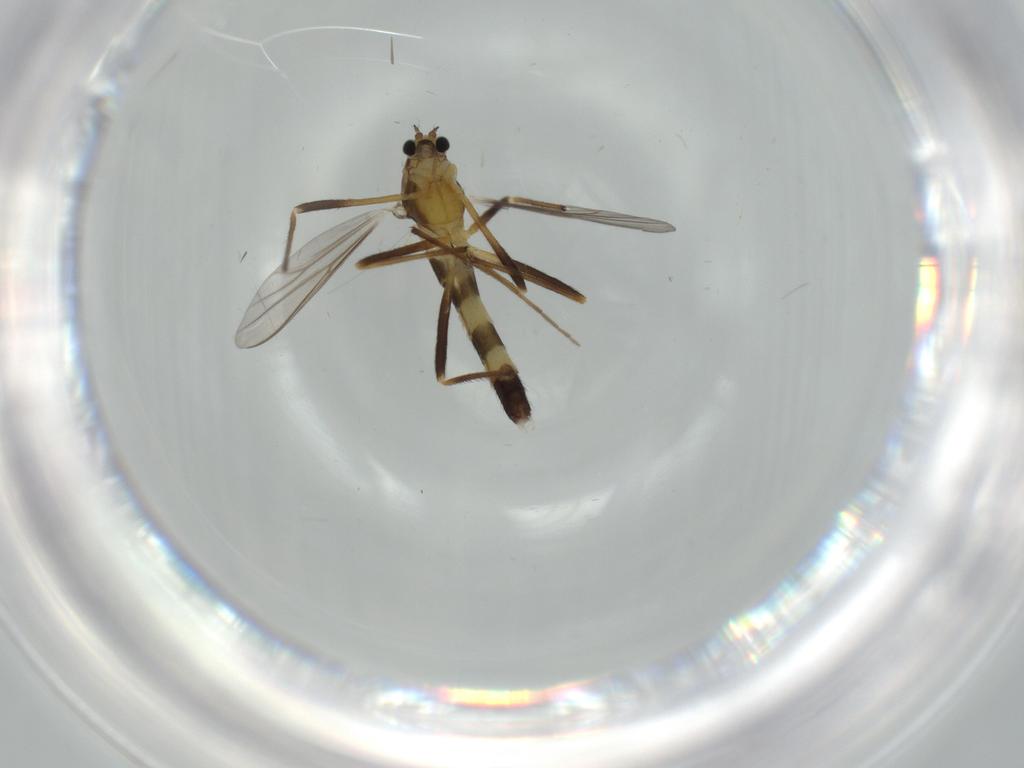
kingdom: Animalia
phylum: Arthropoda
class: Insecta
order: Diptera
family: Chironomidae
